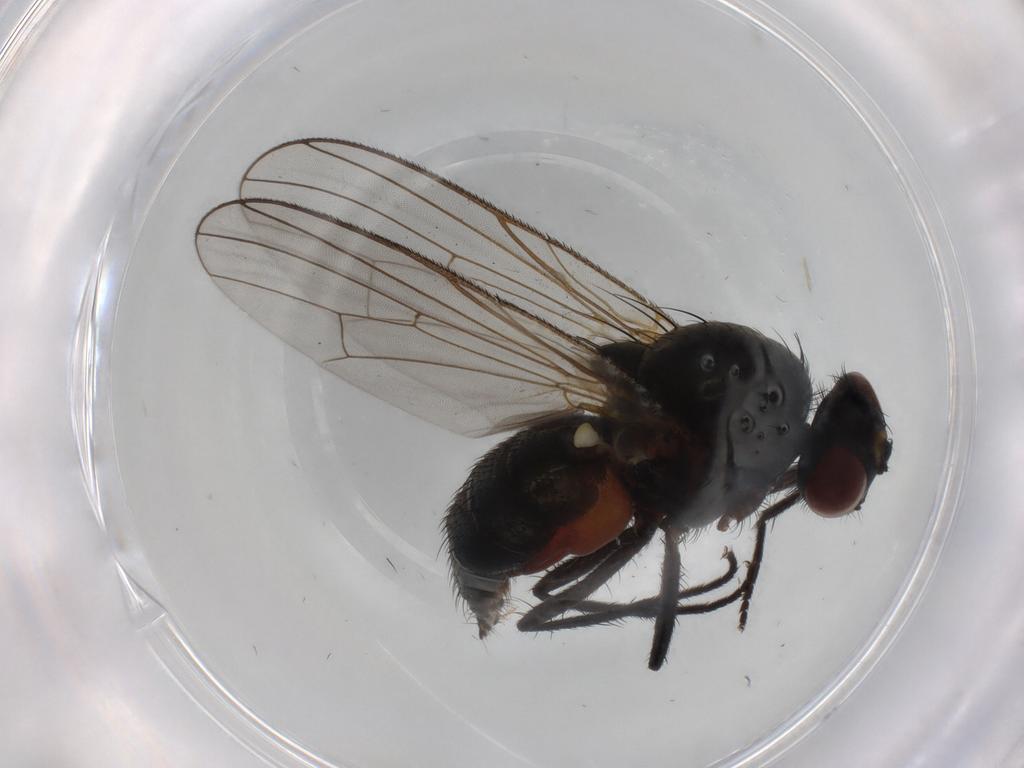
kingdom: Animalia
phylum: Arthropoda
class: Insecta
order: Diptera
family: Anthomyiidae
